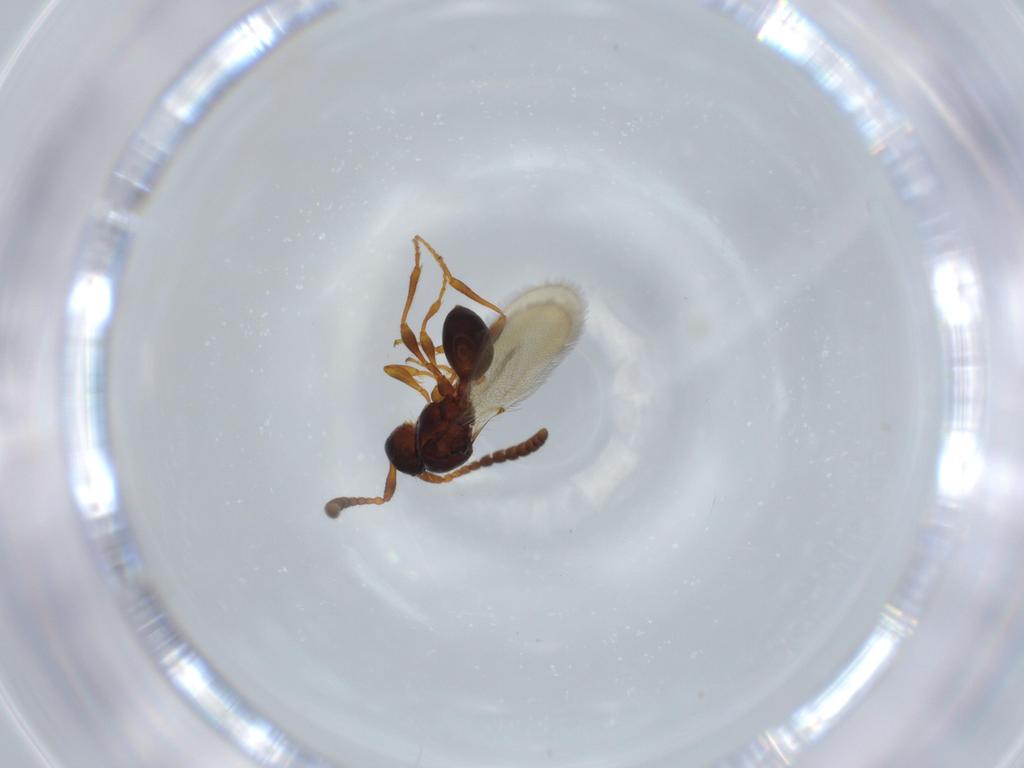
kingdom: Animalia
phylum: Arthropoda
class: Insecta
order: Hymenoptera
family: Diapriidae
